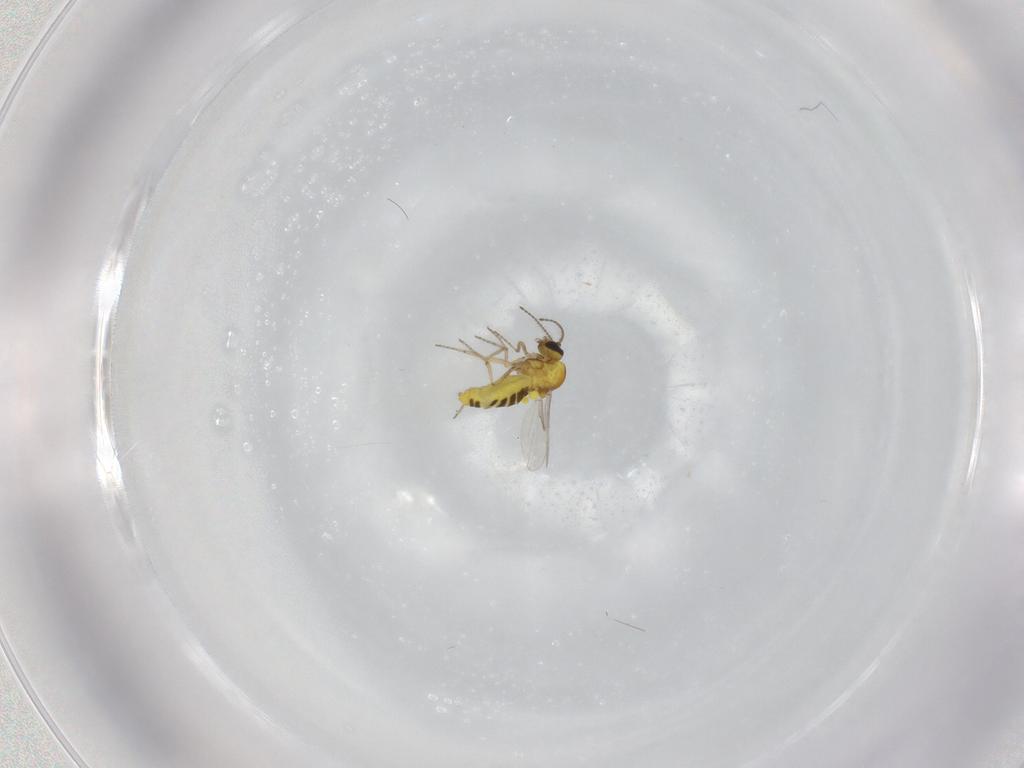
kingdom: Animalia
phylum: Arthropoda
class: Insecta
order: Diptera
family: Ceratopogonidae
